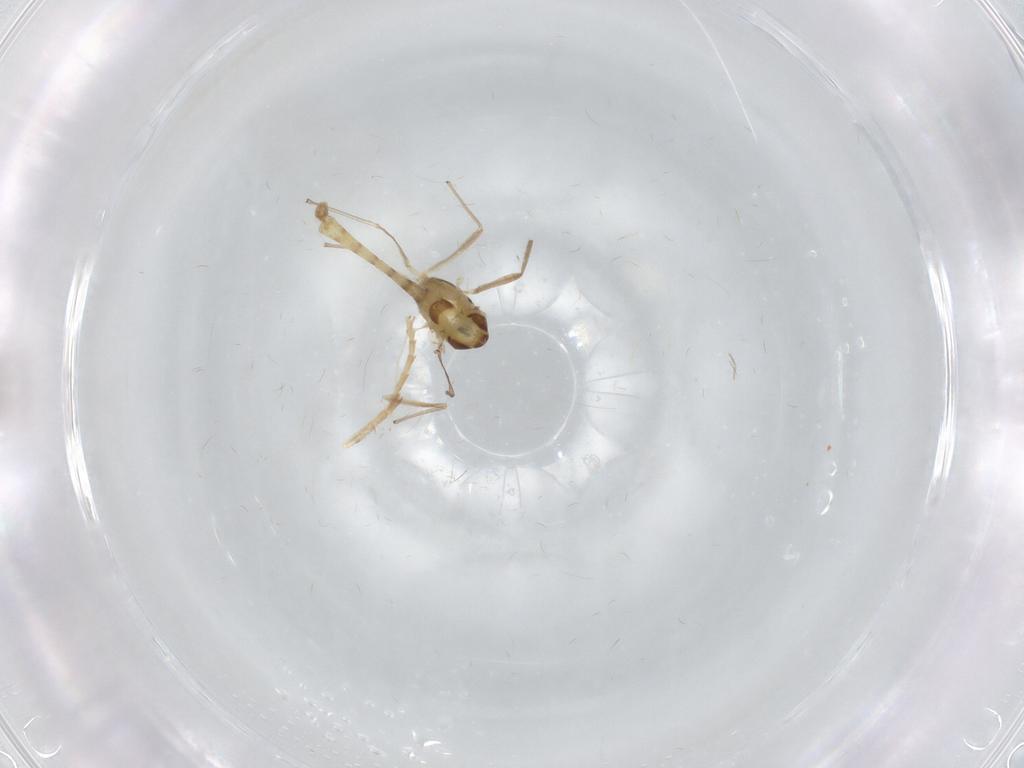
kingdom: Animalia
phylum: Arthropoda
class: Insecta
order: Diptera
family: Chironomidae
